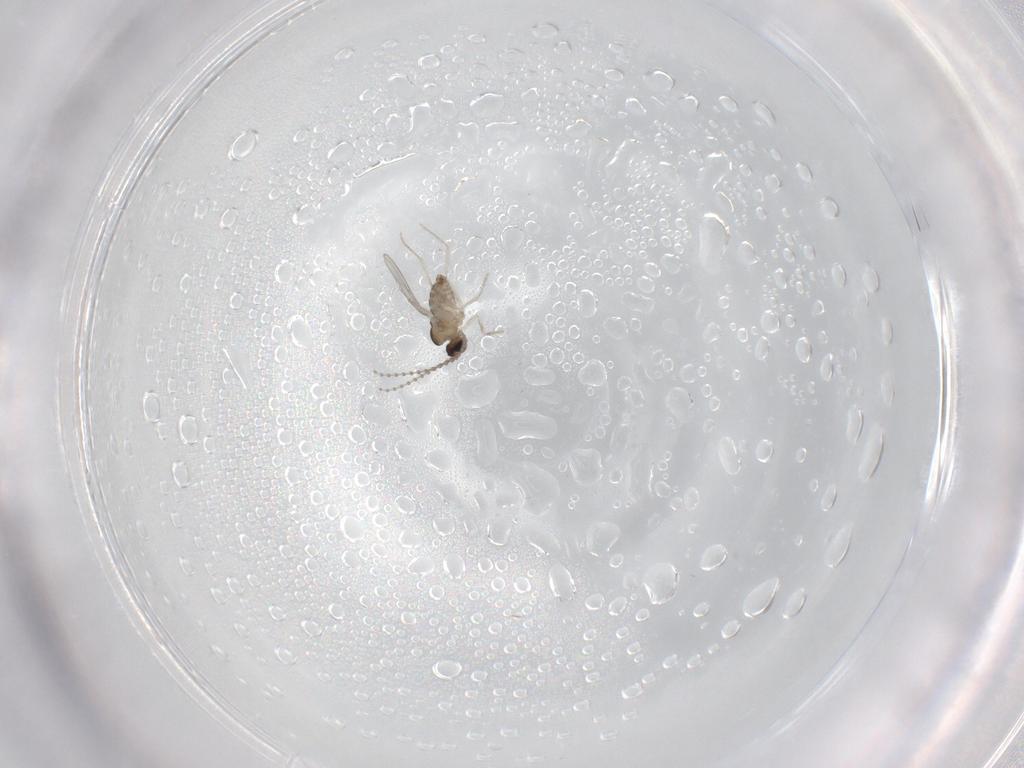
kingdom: Animalia
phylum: Arthropoda
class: Insecta
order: Diptera
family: Cecidomyiidae
